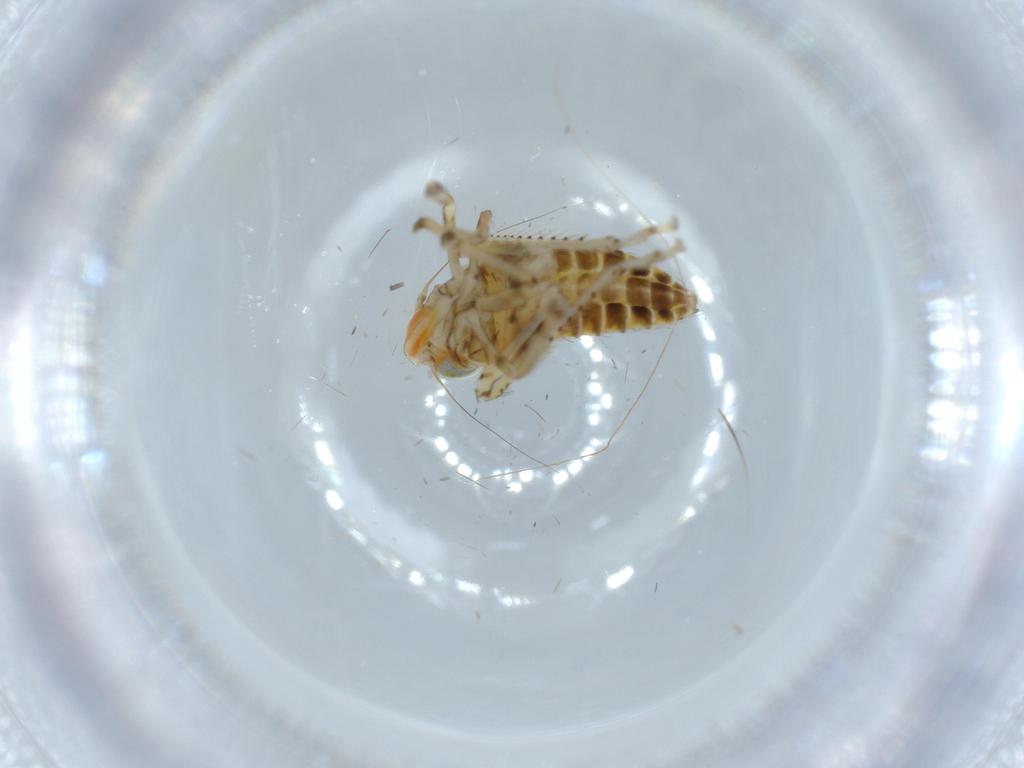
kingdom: Animalia
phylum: Arthropoda
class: Insecta
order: Hemiptera
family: Cicadellidae
